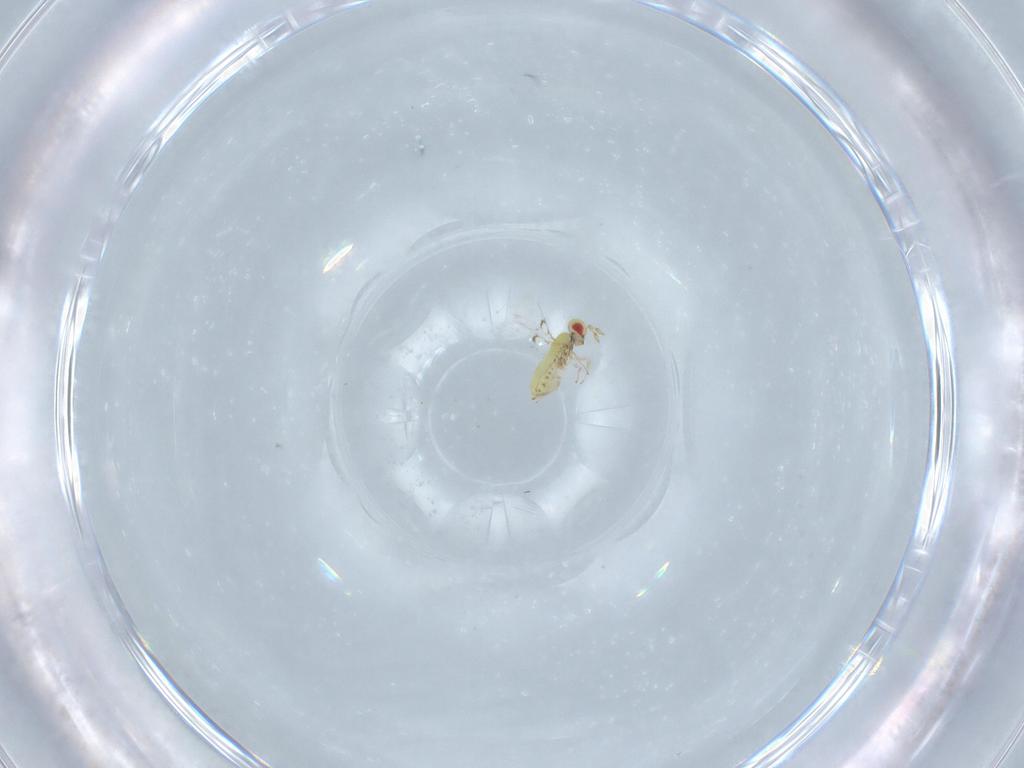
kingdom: Animalia
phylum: Arthropoda
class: Insecta
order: Hymenoptera
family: Trichogrammatidae
